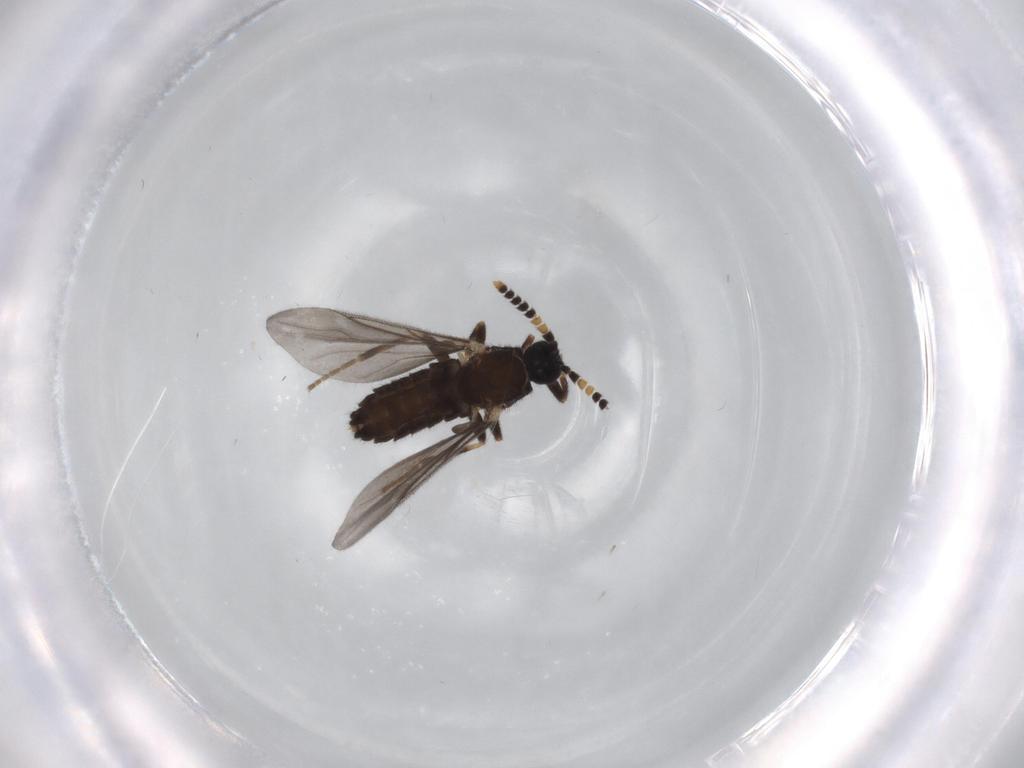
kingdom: Animalia
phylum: Arthropoda
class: Insecta
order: Diptera
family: Scatopsidae
